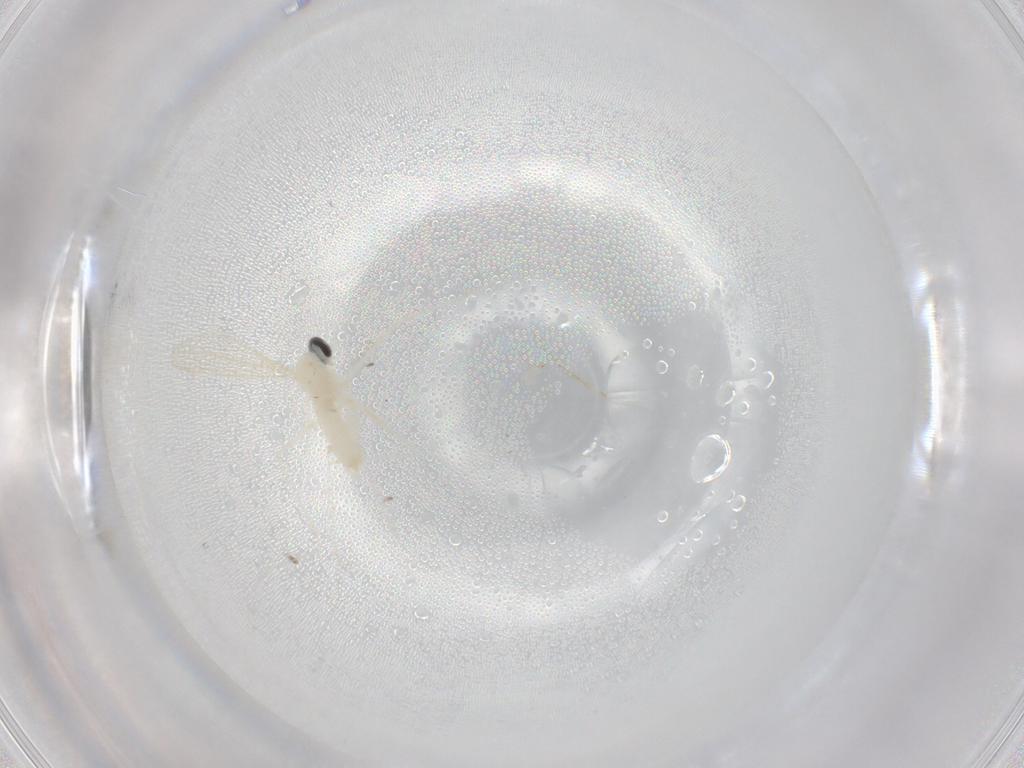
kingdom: Animalia
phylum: Arthropoda
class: Insecta
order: Diptera
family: Cecidomyiidae
